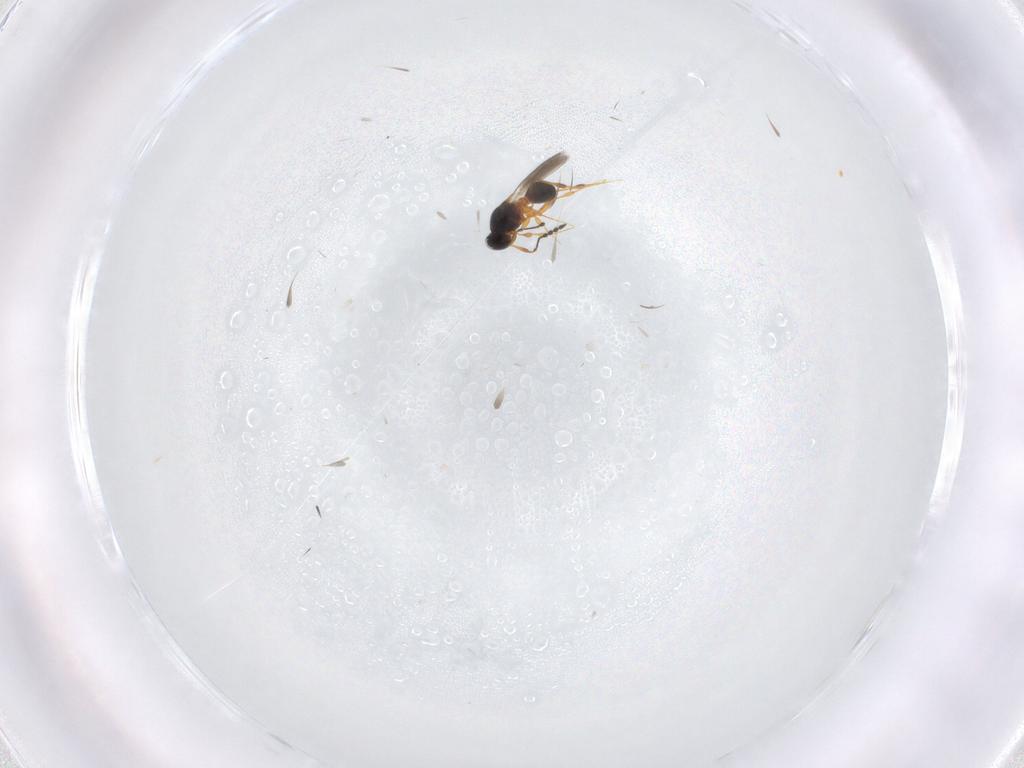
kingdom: Animalia
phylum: Arthropoda
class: Insecta
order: Hymenoptera
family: Platygastridae
